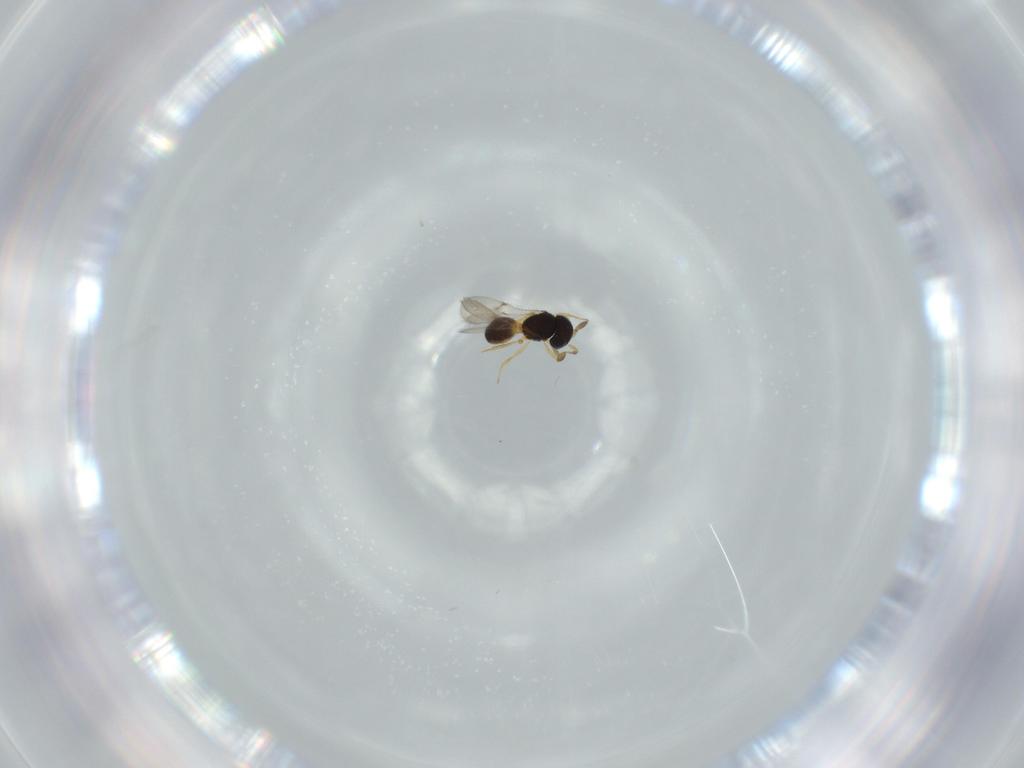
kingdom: Animalia
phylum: Arthropoda
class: Insecta
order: Hymenoptera
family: Scelionidae
